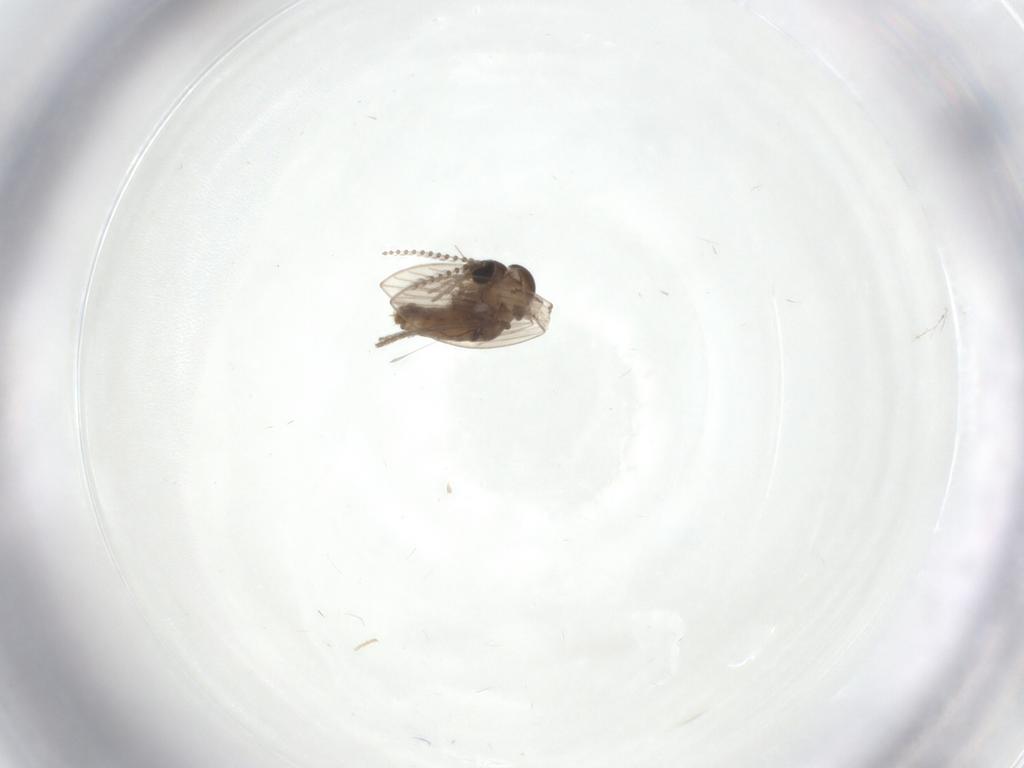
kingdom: Animalia
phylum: Arthropoda
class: Insecta
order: Diptera
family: Psychodidae
